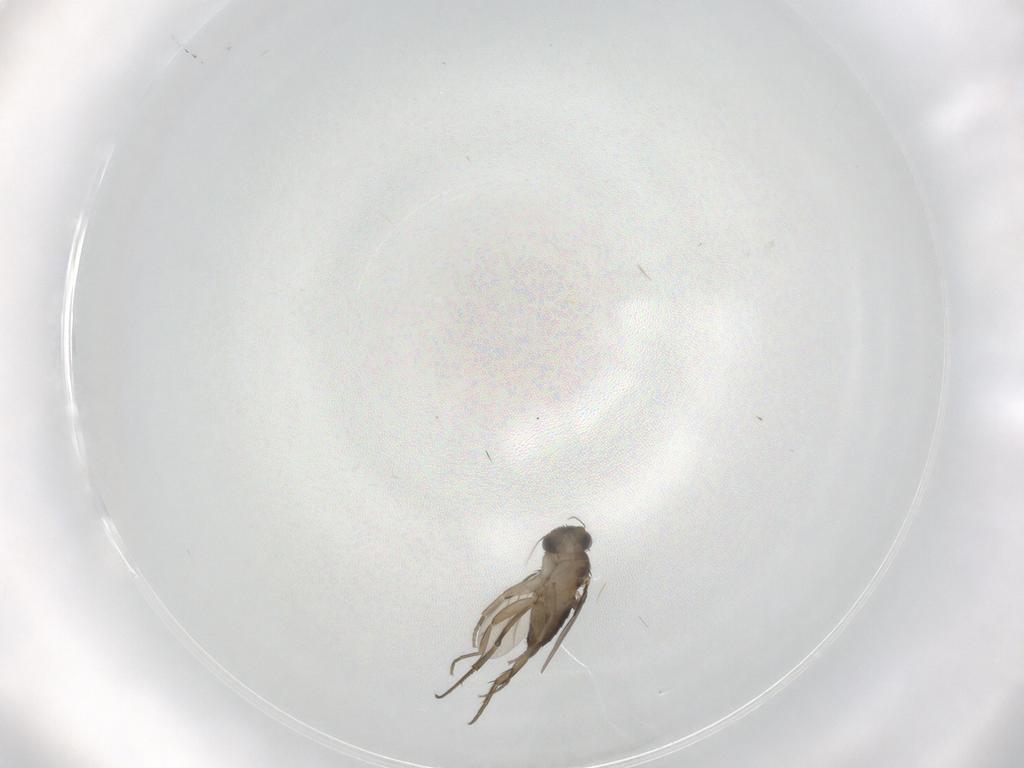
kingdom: Animalia
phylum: Arthropoda
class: Insecta
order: Diptera
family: Phoridae
